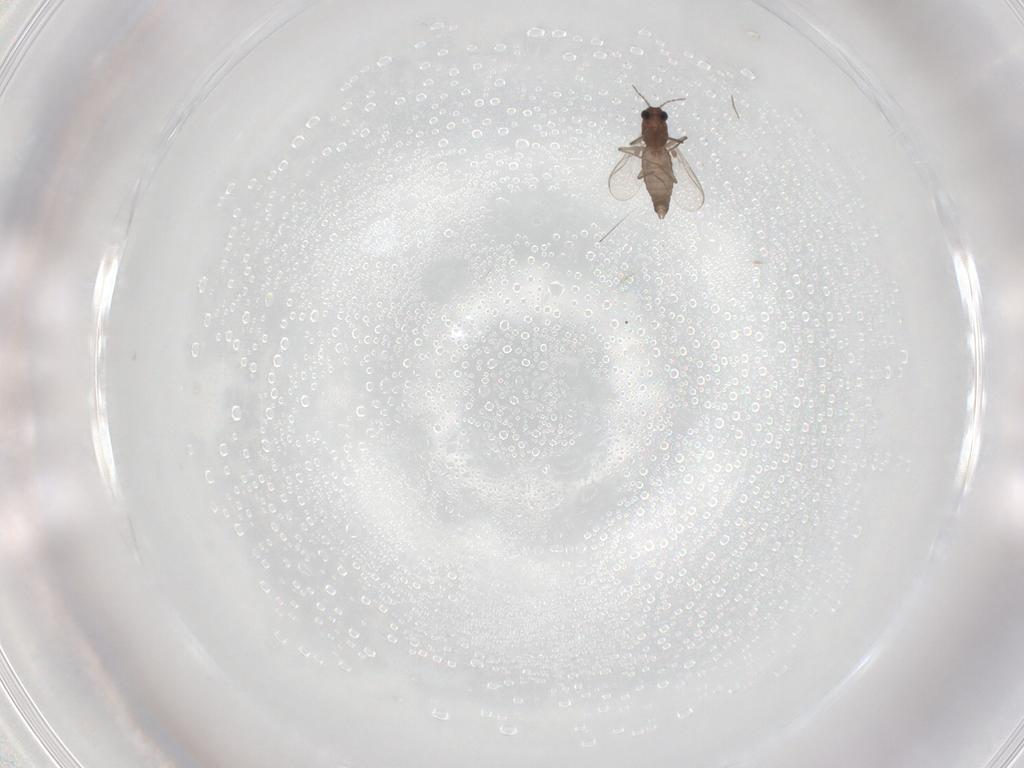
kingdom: Animalia
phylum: Arthropoda
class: Insecta
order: Diptera
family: Chironomidae
